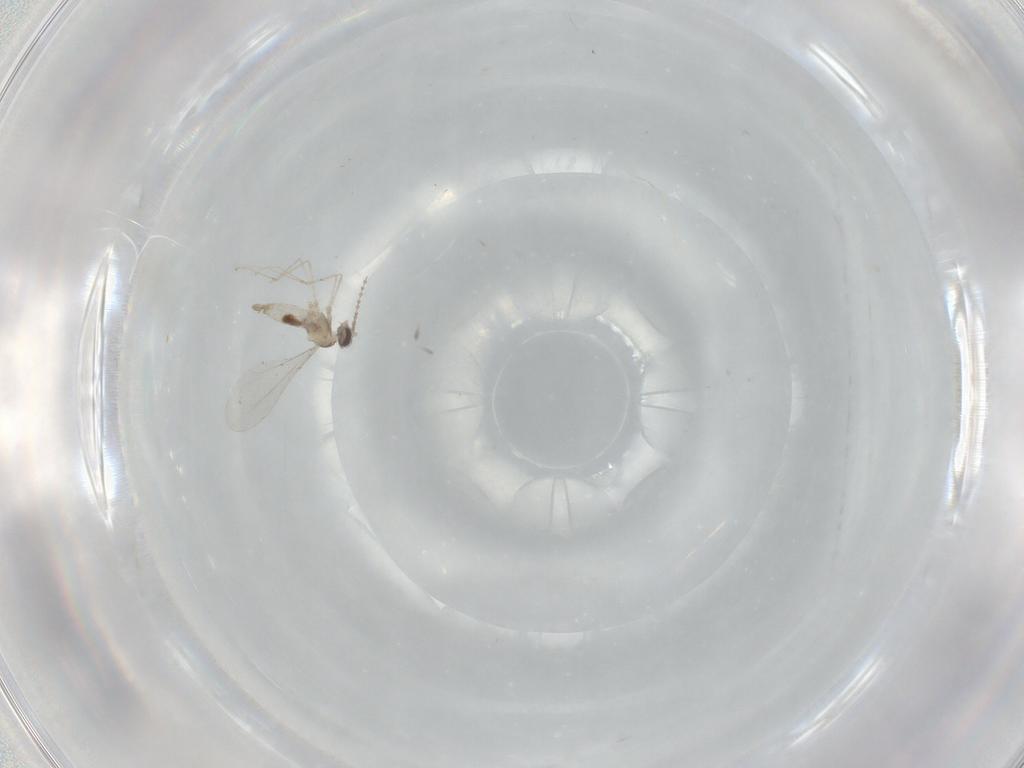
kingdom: Animalia
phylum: Arthropoda
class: Insecta
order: Diptera
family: Cecidomyiidae
